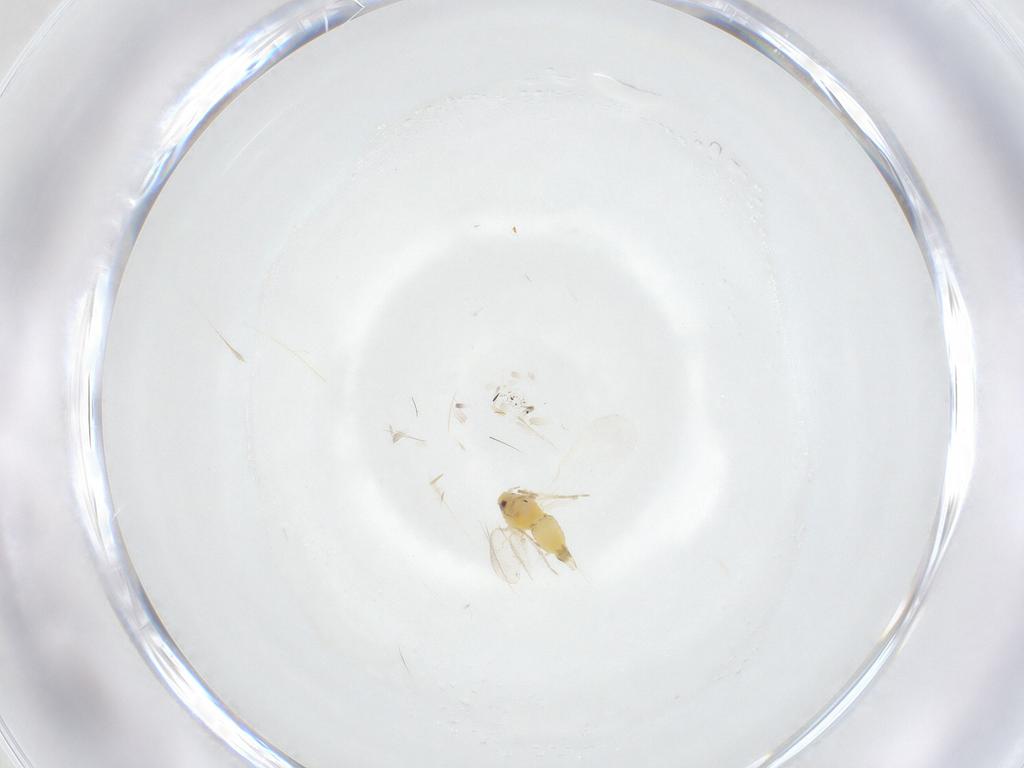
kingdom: Animalia
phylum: Arthropoda
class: Insecta
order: Hemiptera
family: Aleyrodidae
